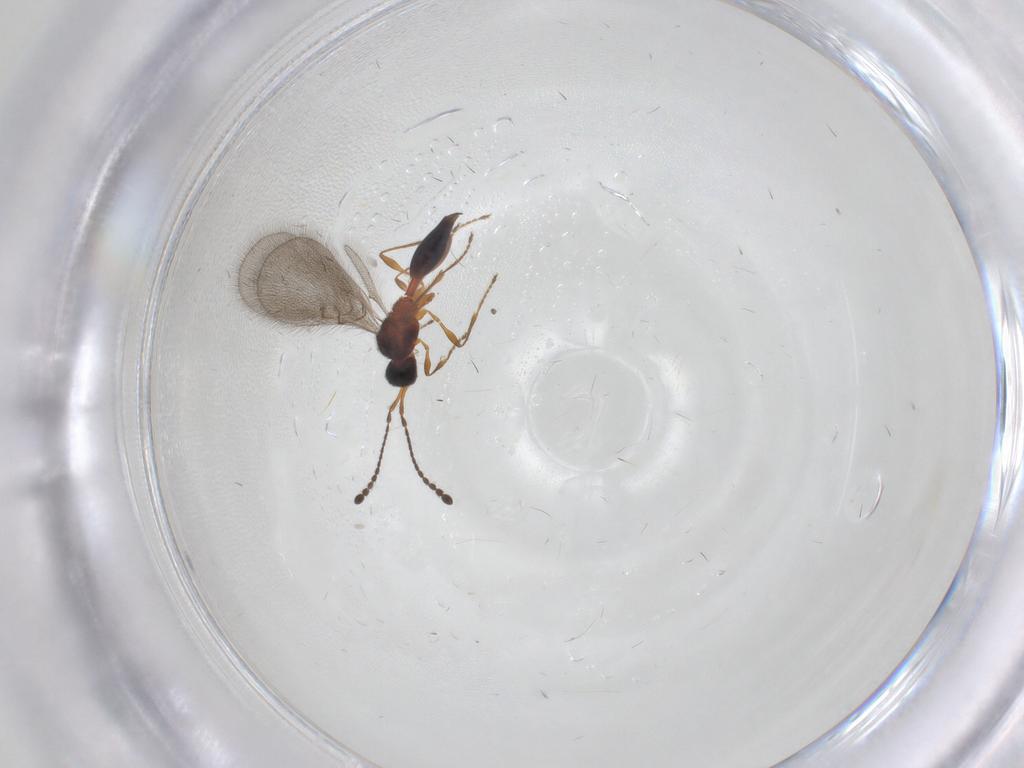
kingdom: Animalia
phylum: Arthropoda
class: Insecta
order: Hymenoptera
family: Diapriidae
